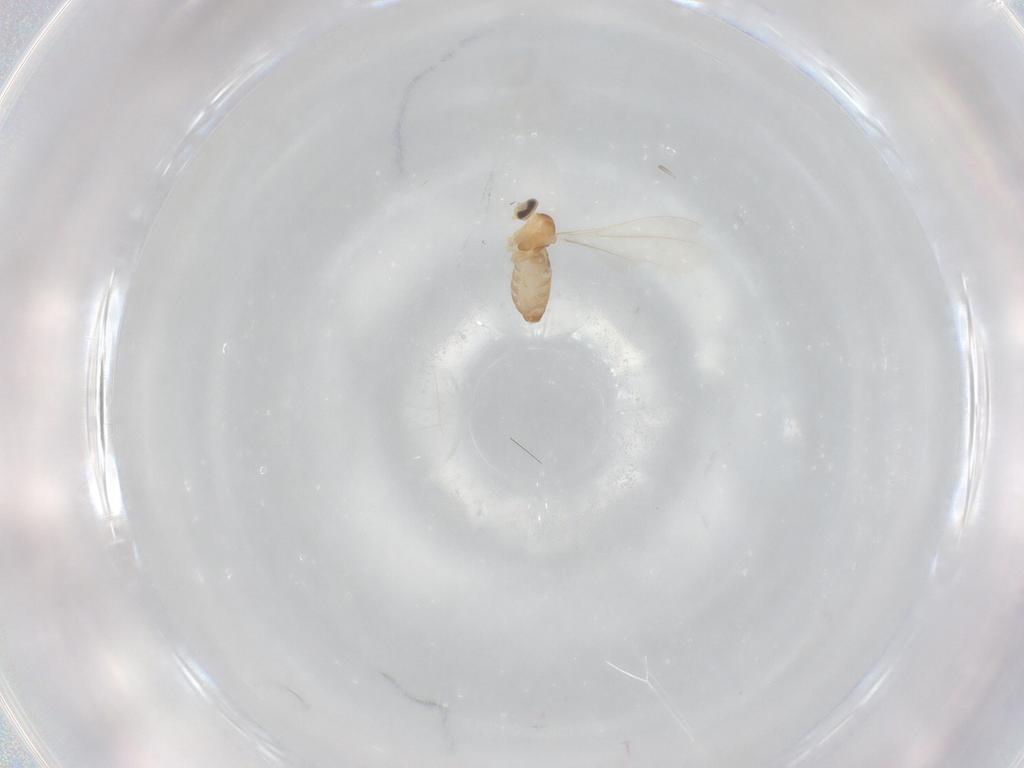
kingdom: Animalia
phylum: Arthropoda
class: Insecta
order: Diptera
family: Cecidomyiidae
